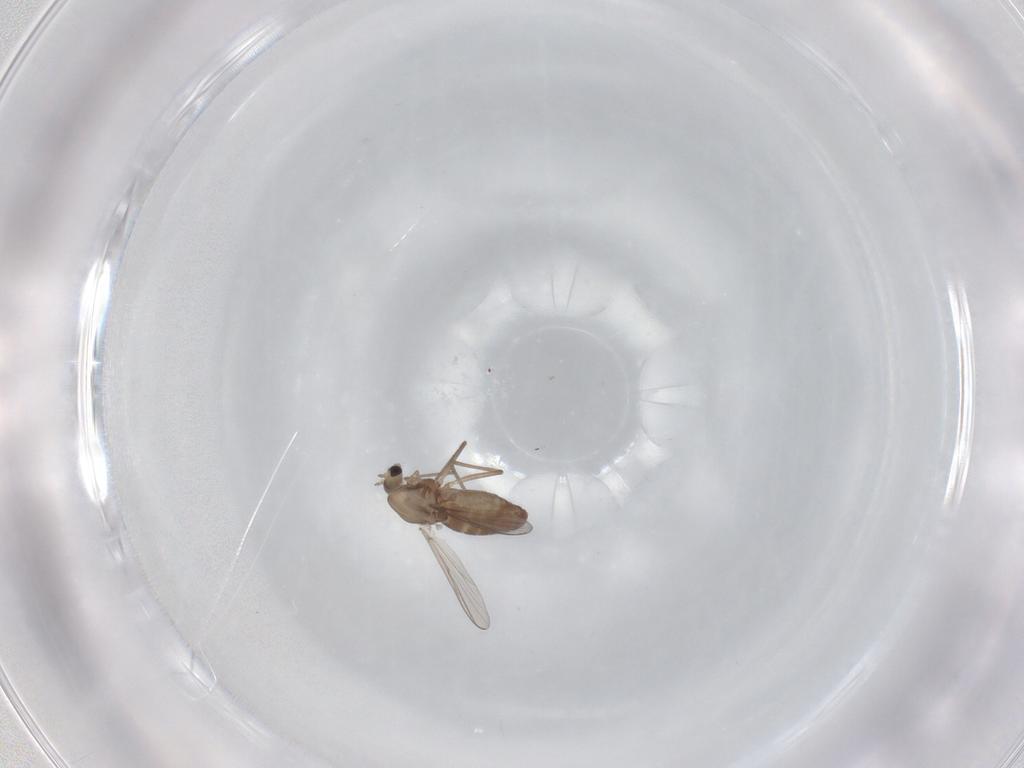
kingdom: Animalia
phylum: Arthropoda
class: Insecta
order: Diptera
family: Chironomidae
